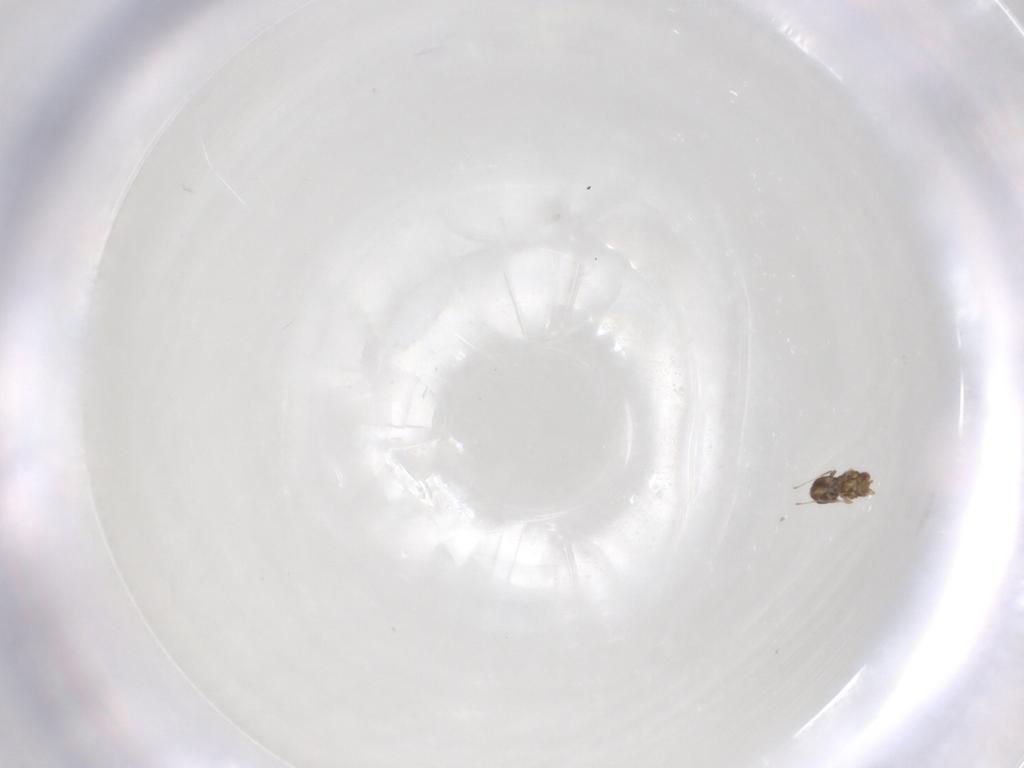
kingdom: Animalia
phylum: Arthropoda
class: Insecta
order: Hymenoptera
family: Trichogrammatidae
